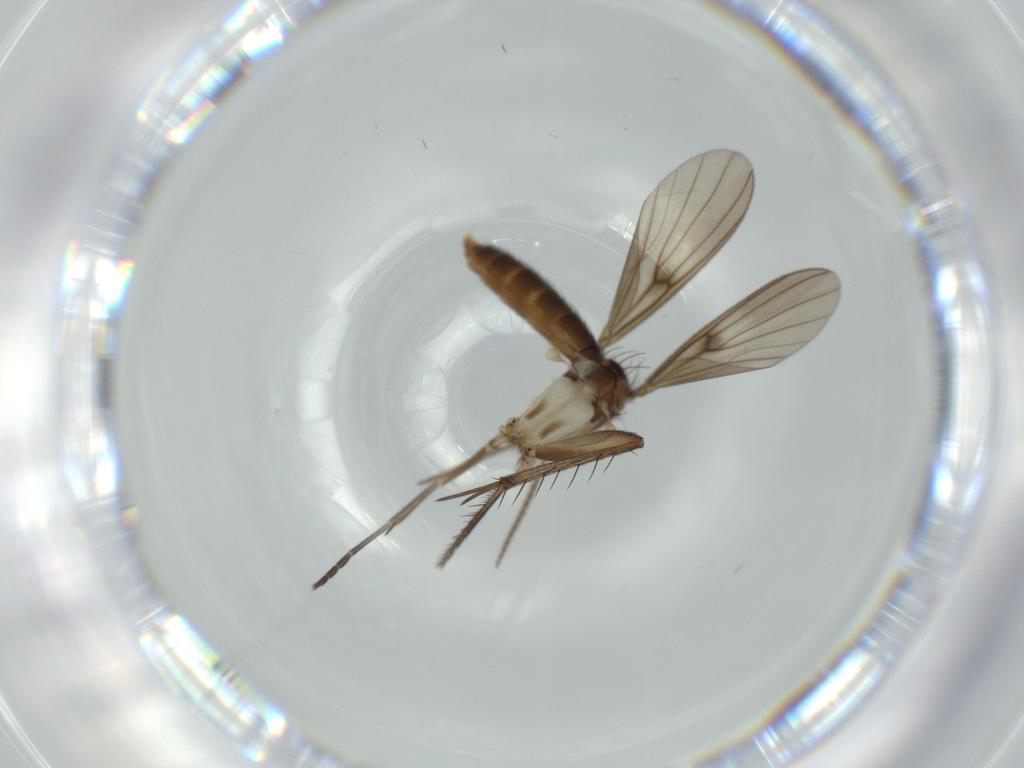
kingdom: Animalia
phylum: Arthropoda
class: Insecta
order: Diptera
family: Mycetophilidae
